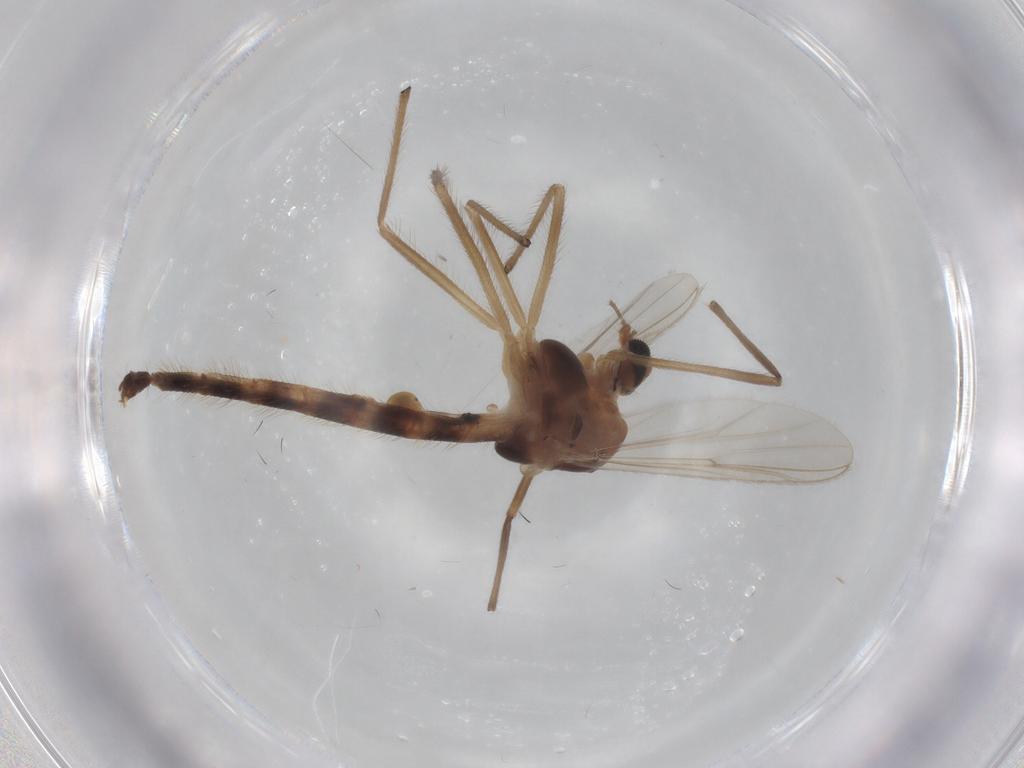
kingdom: Animalia
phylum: Arthropoda
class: Insecta
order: Diptera
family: Chironomidae
